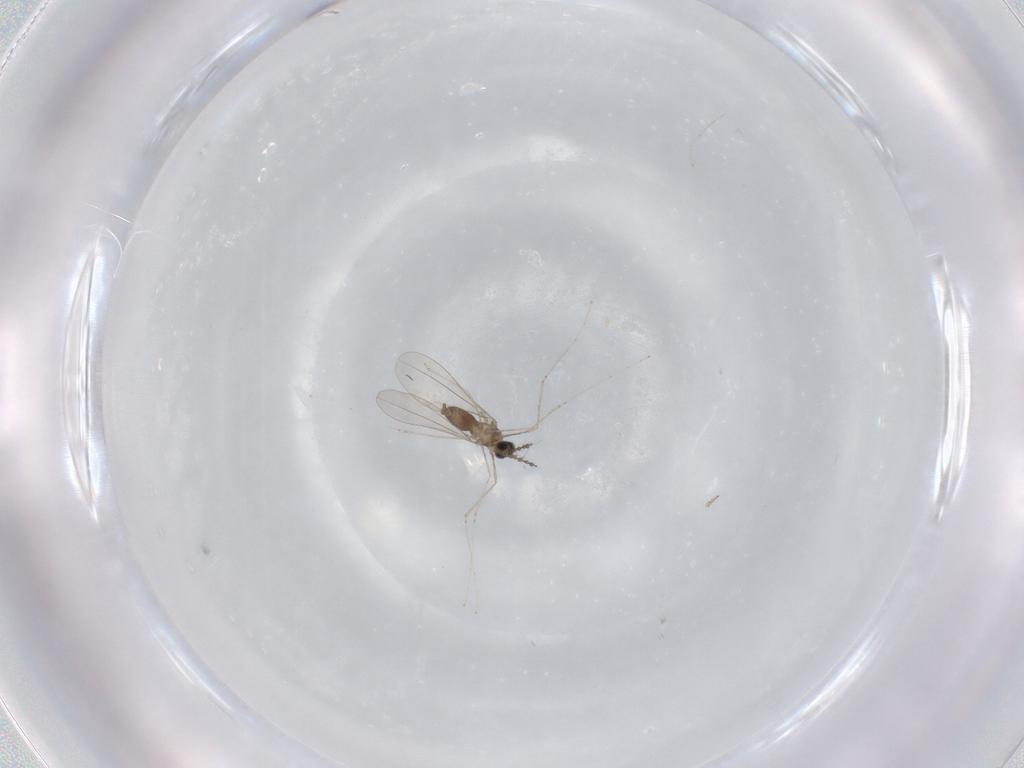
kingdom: Animalia
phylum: Arthropoda
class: Insecta
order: Diptera
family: Cecidomyiidae
